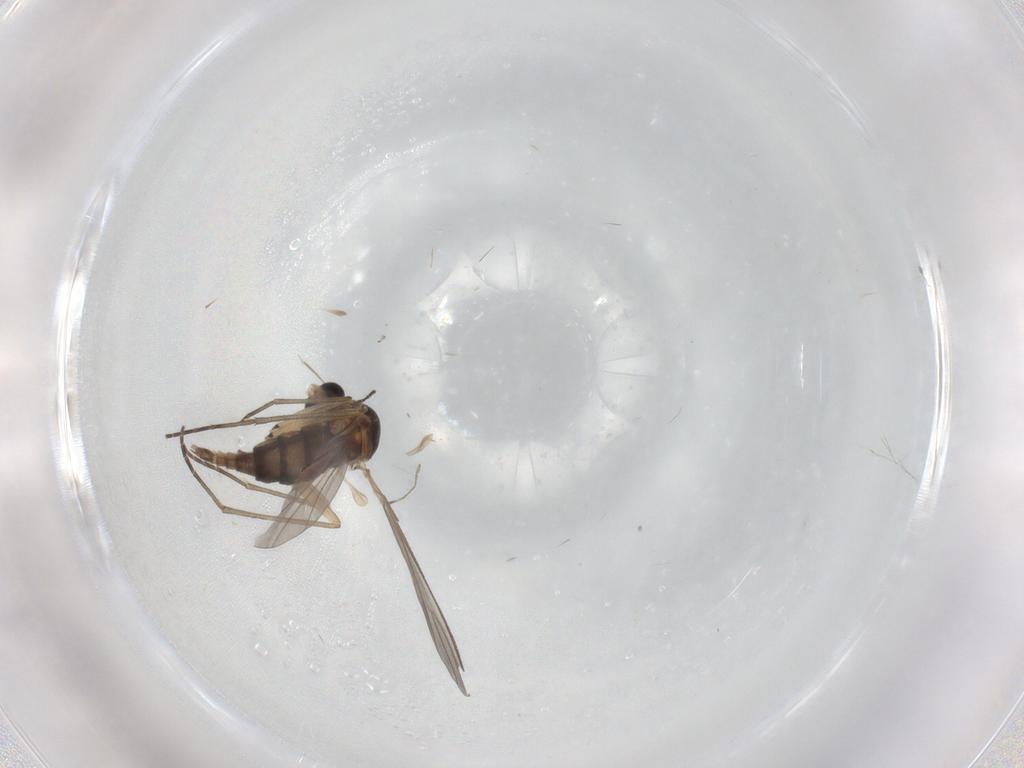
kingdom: Animalia
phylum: Arthropoda
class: Insecta
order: Diptera
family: Sciaridae
